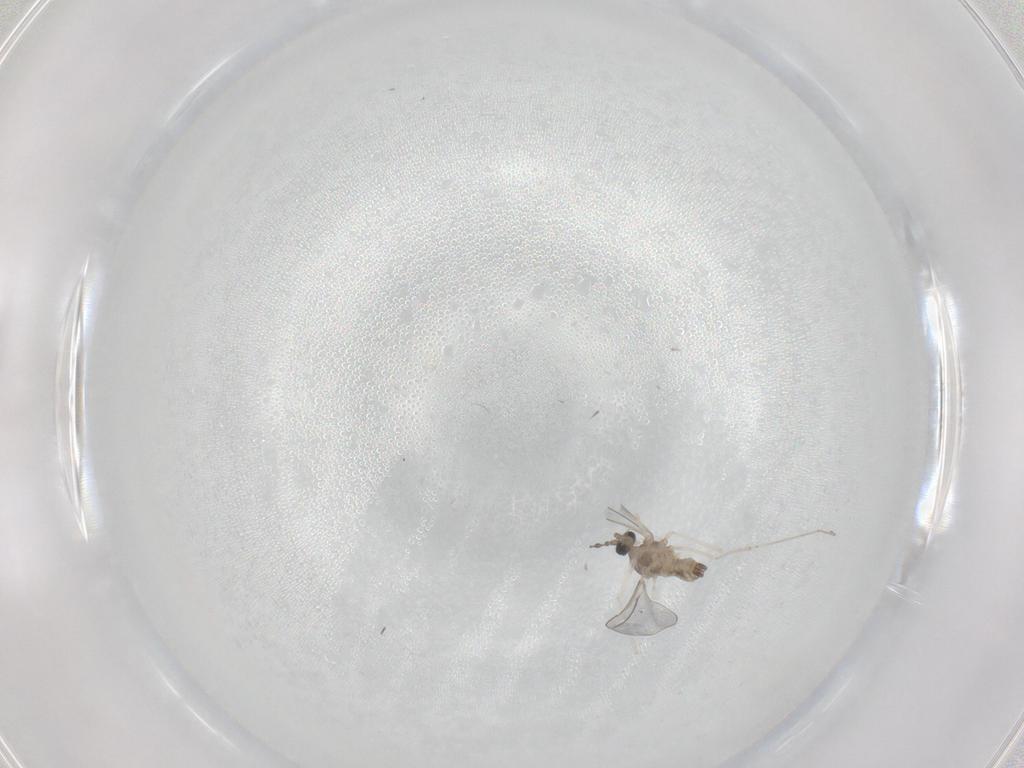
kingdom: Animalia
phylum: Arthropoda
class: Insecta
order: Diptera
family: Cecidomyiidae
